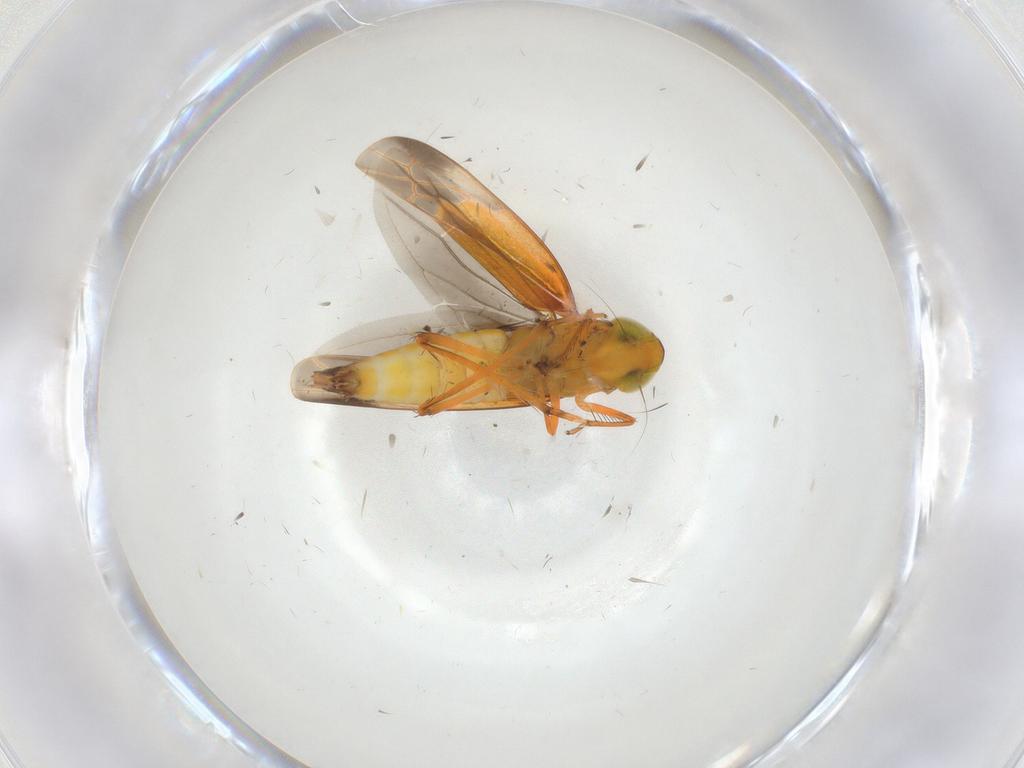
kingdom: Animalia
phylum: Arthropoda
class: Insecta
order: Hemiptera
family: Cicadellidae
